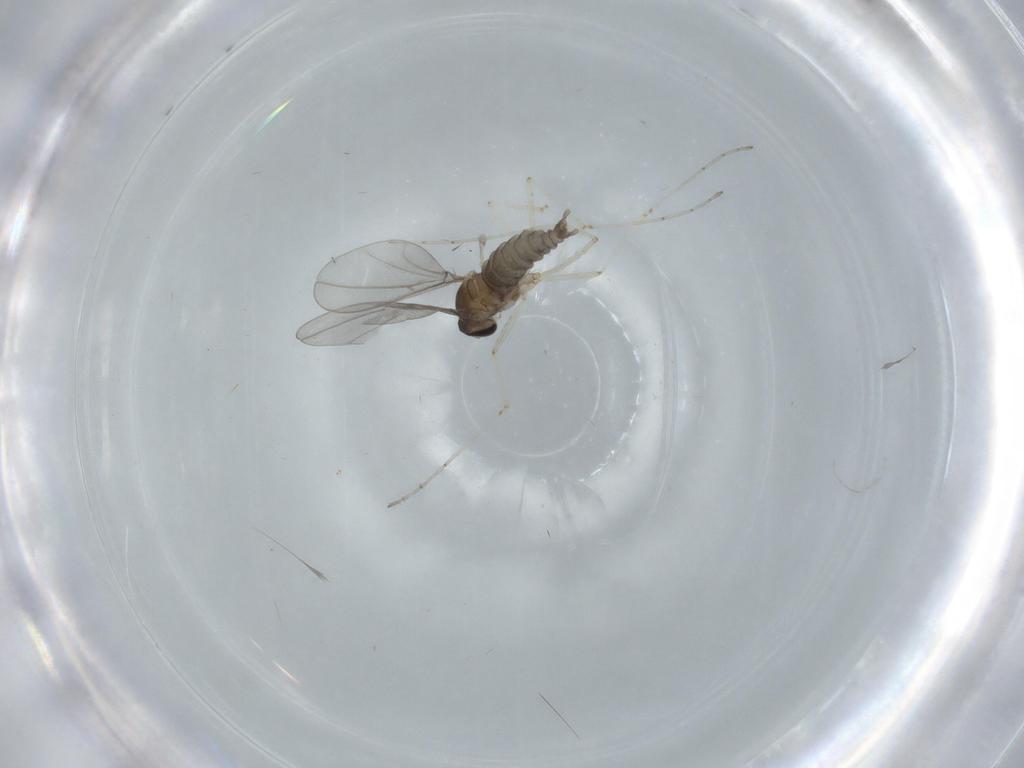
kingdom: Animalia
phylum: Arthropoda
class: Insecta
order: Diptera
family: Cecidomyiidae
